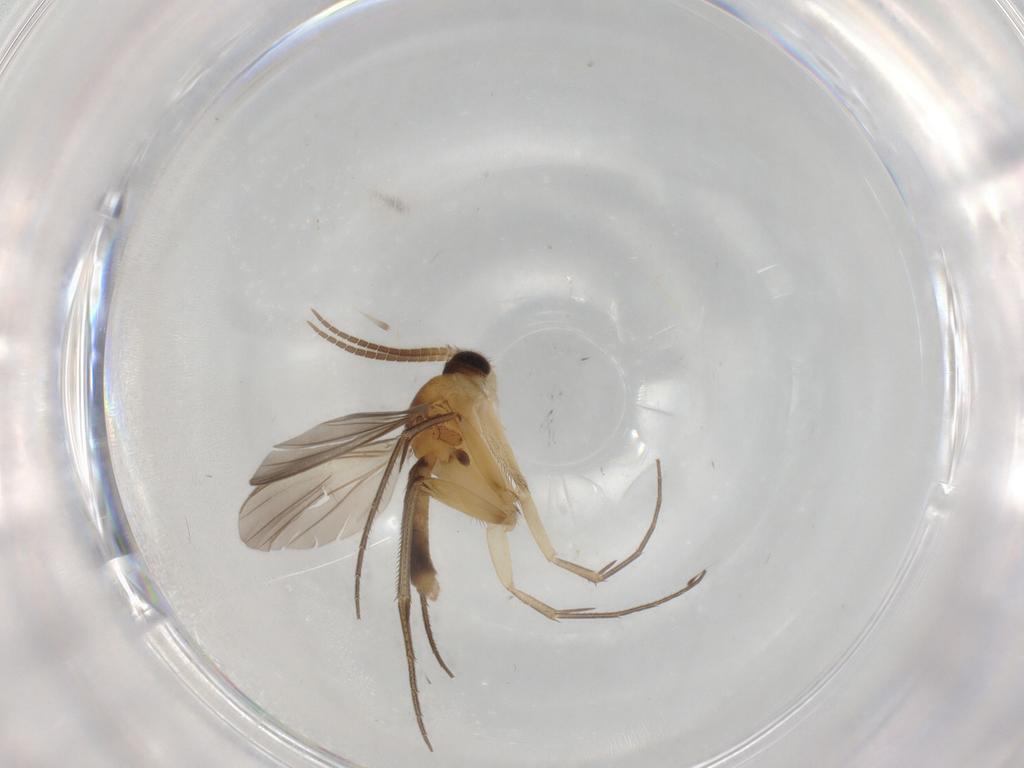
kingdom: Animalia
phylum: Arthropoda
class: Insecta
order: Diptera
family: Mycetophilidae
